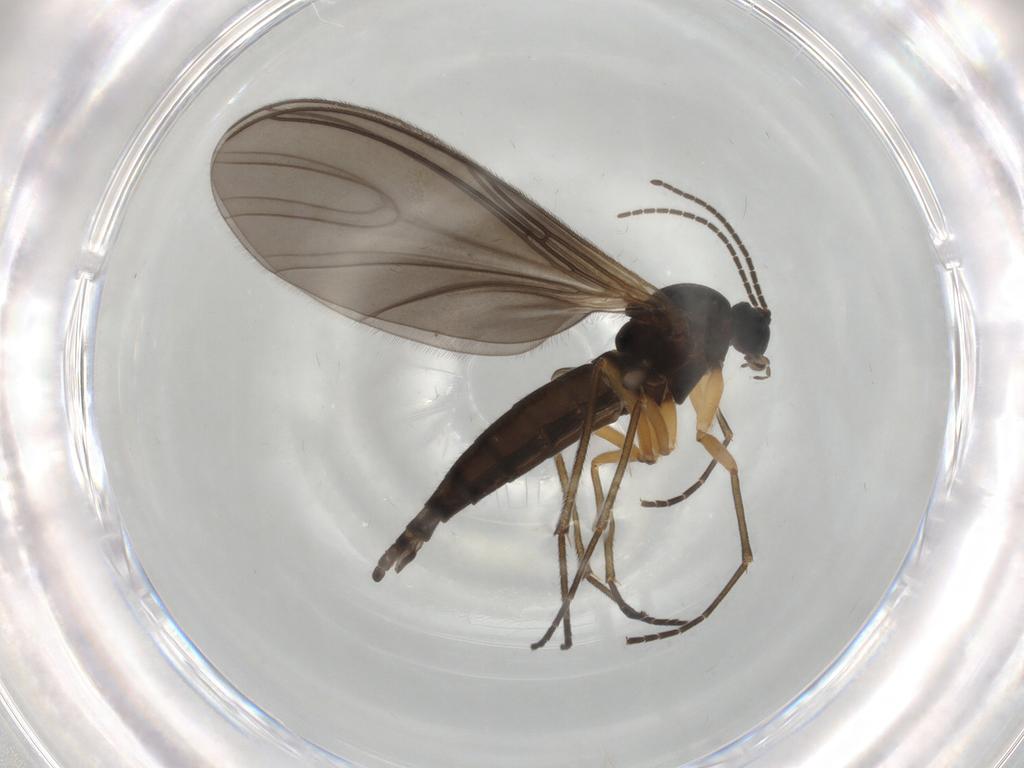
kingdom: Animalia
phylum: Arthropoda
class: Insecta
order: Diptera
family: Sciaridae
